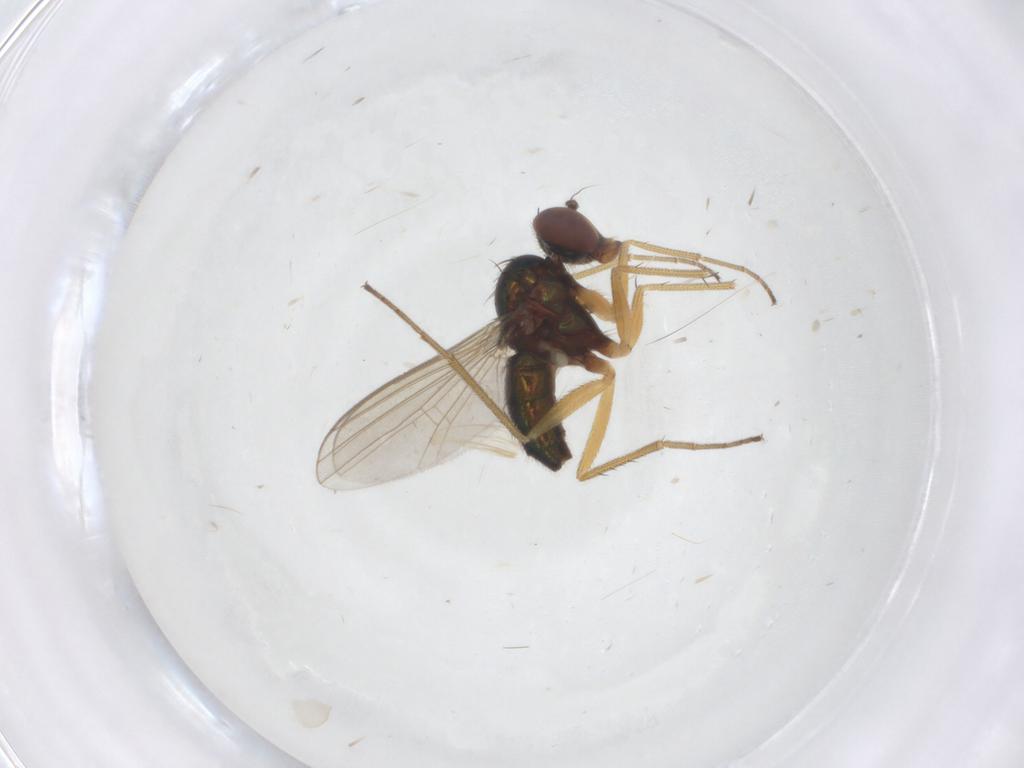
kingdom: Animalia
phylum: Arthropoda
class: Insecta
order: Diptera
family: Dolichopodidae
